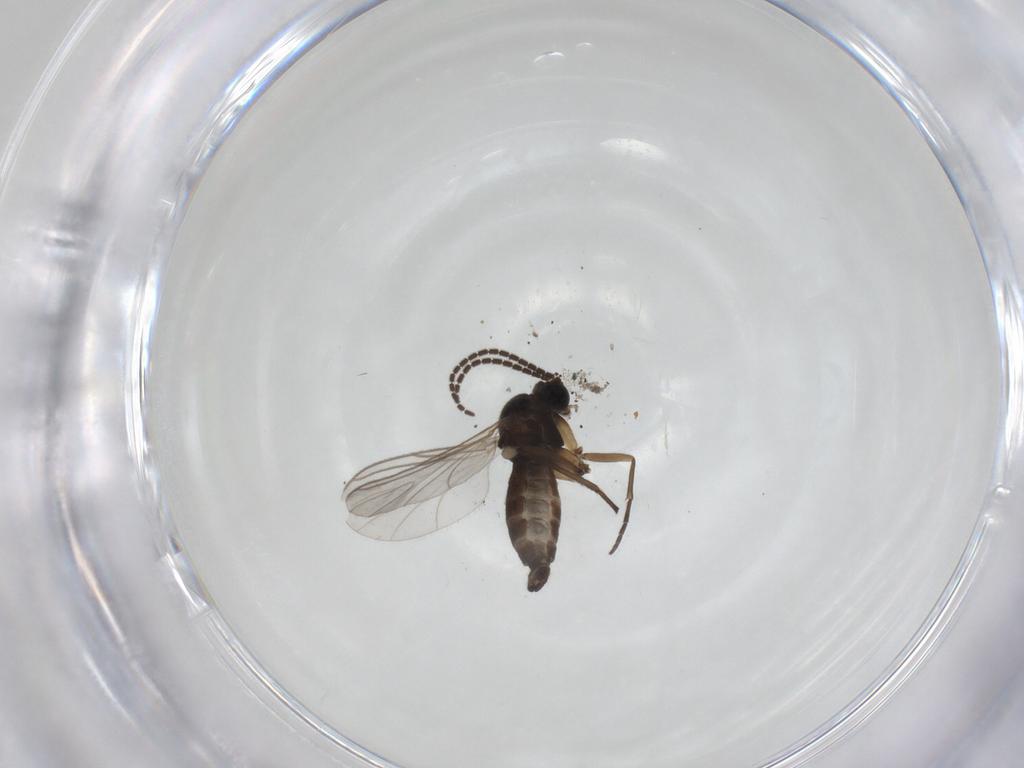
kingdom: Animalia
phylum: Arthropoda
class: Insecta
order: Diptera
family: Sciaridae
